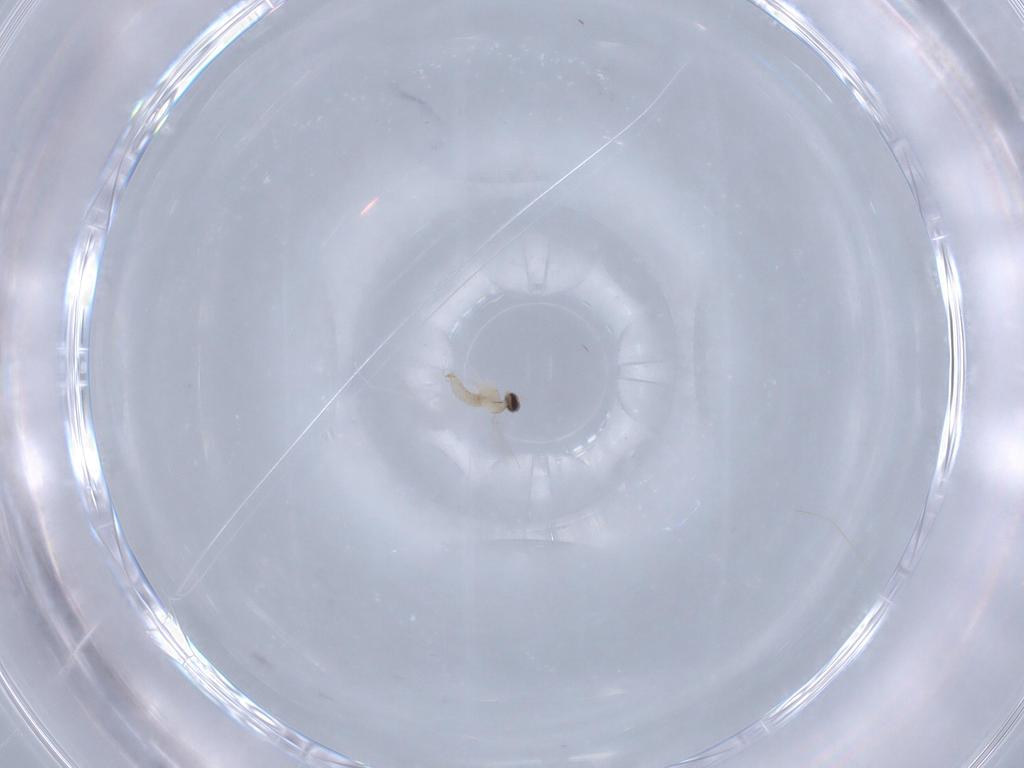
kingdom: Animalia
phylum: Arthropoda
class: Insecta
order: Diptera
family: Cecidomyiidae
